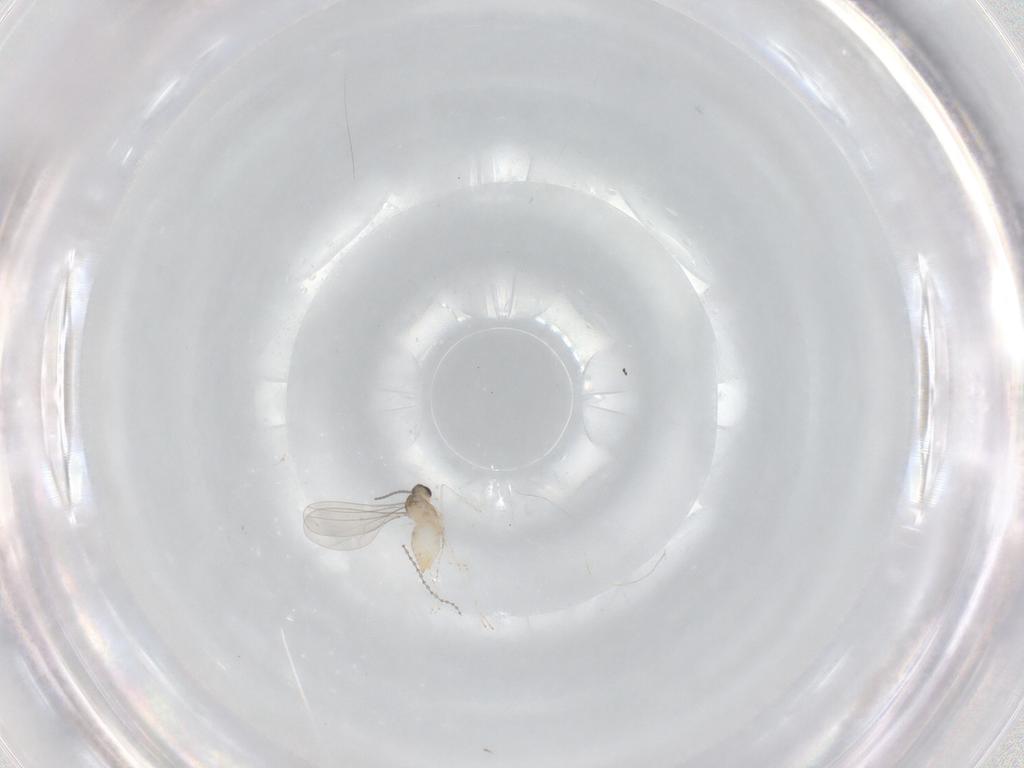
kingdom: Animalia
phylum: Arthropoda
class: Insecta
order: Diptera
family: Cecidomyiidae
